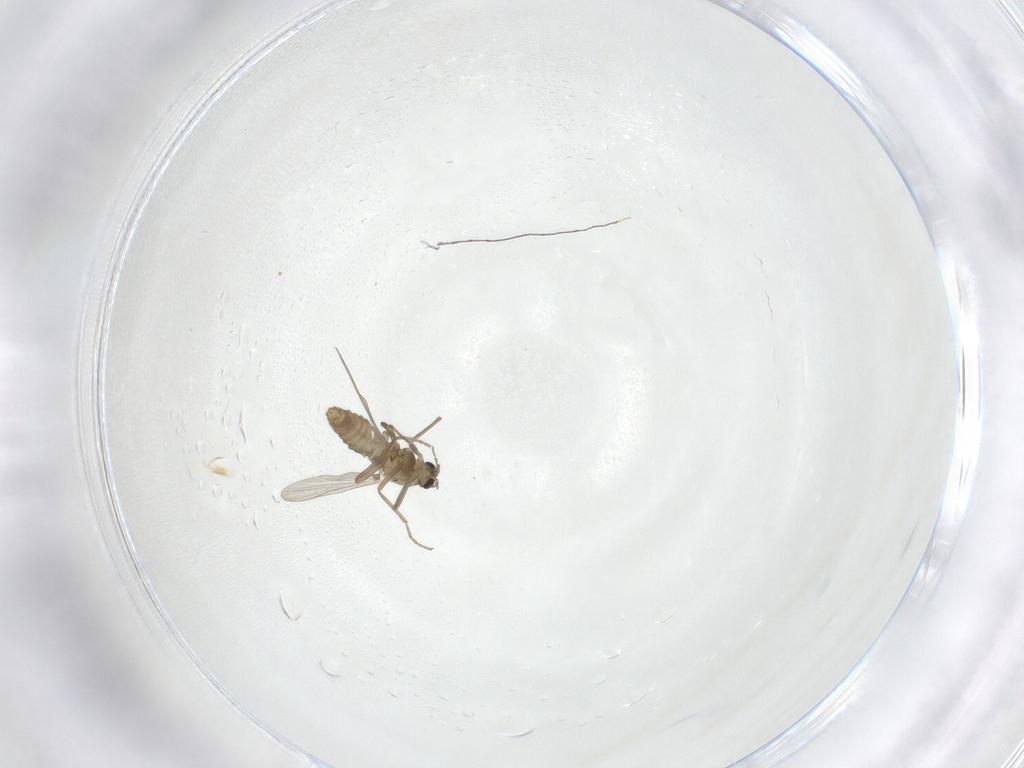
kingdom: Animalia
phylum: Arthropoda
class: Insecta
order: Diptera
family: Chironomidae
